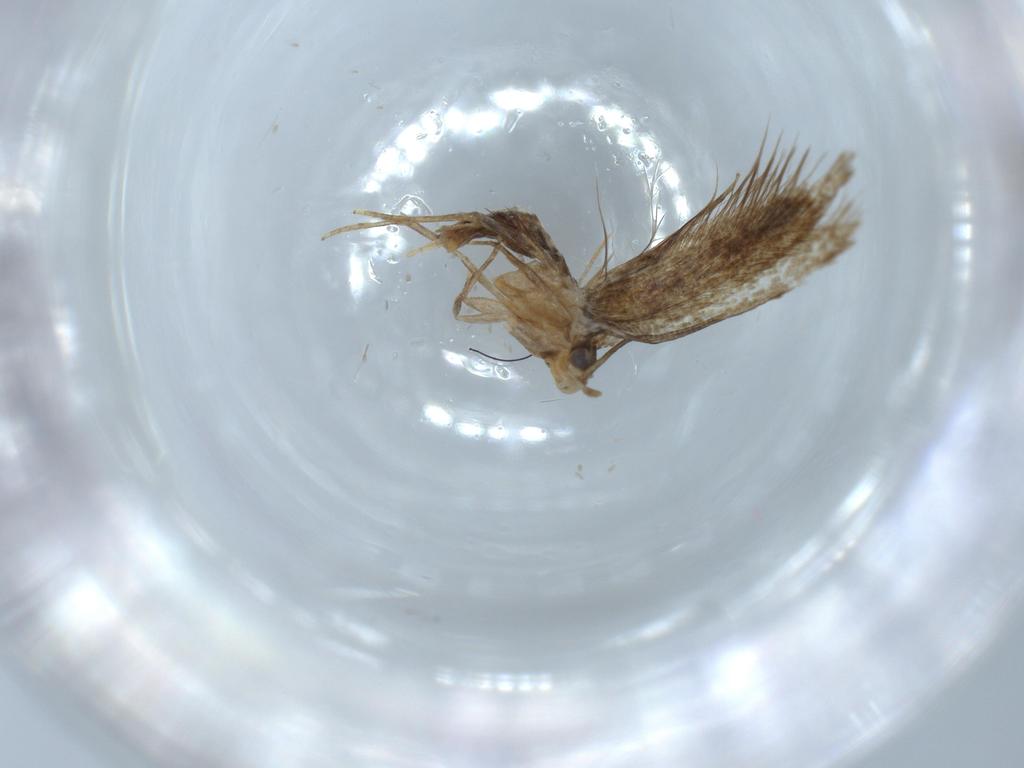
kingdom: Animalia
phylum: Arthropoda
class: Insecta
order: Lepidoptera
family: Tineidae
